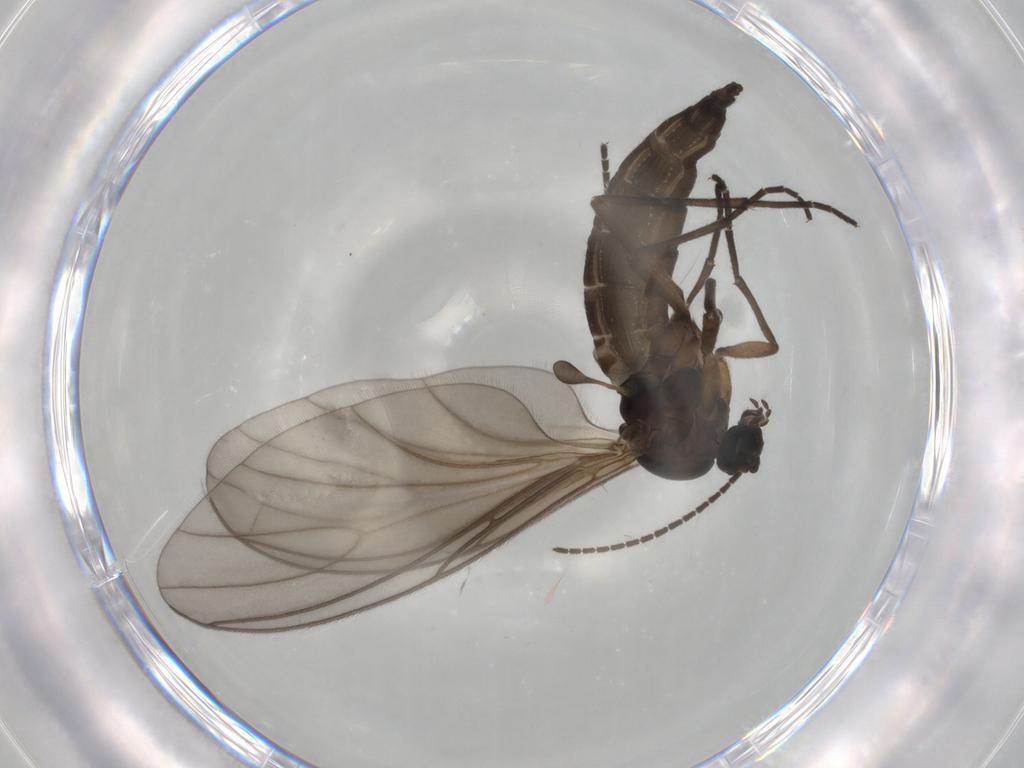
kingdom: Animalia
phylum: Arthropoda
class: Insecta
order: Diptera
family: Sciaridae
